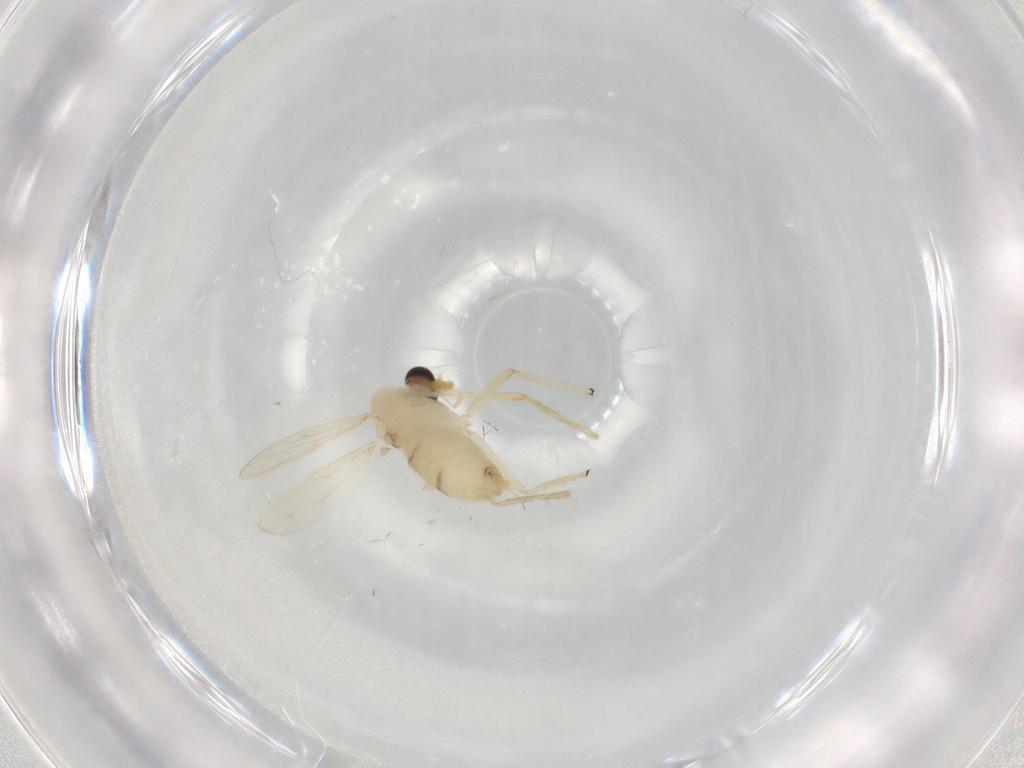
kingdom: Animalia
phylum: Arthropoda
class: Insecta
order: Diptera
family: Chironomidae
